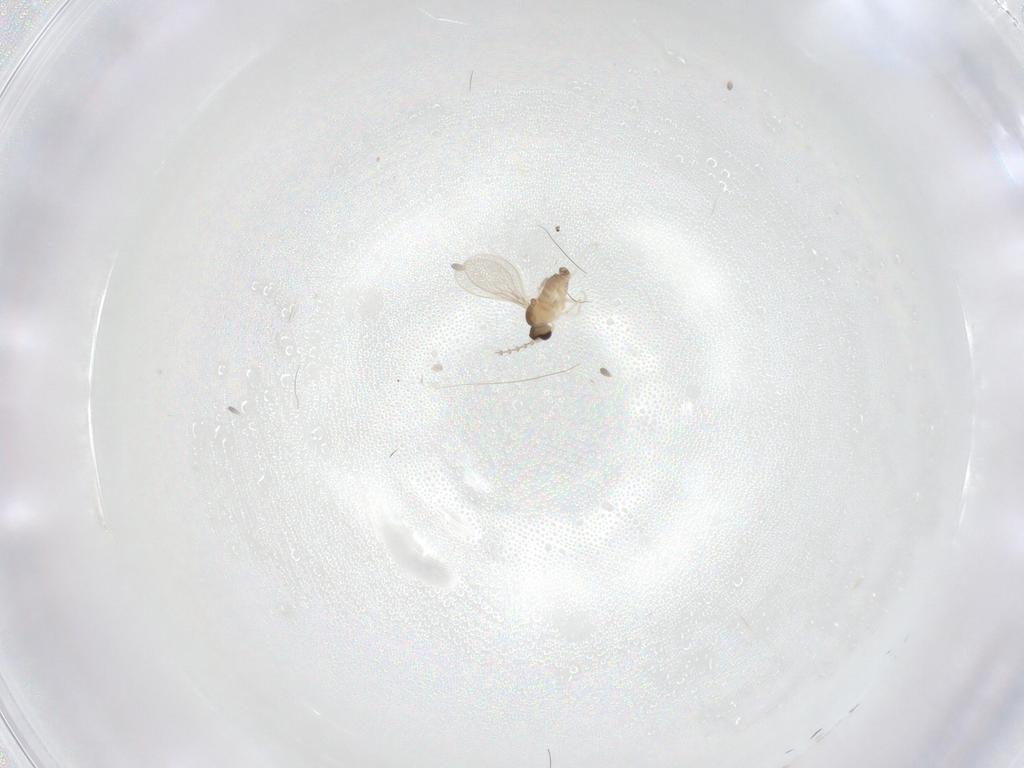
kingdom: Animalia
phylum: Arthropoda
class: Insecta
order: Diptera
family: Cecidomyiidae
